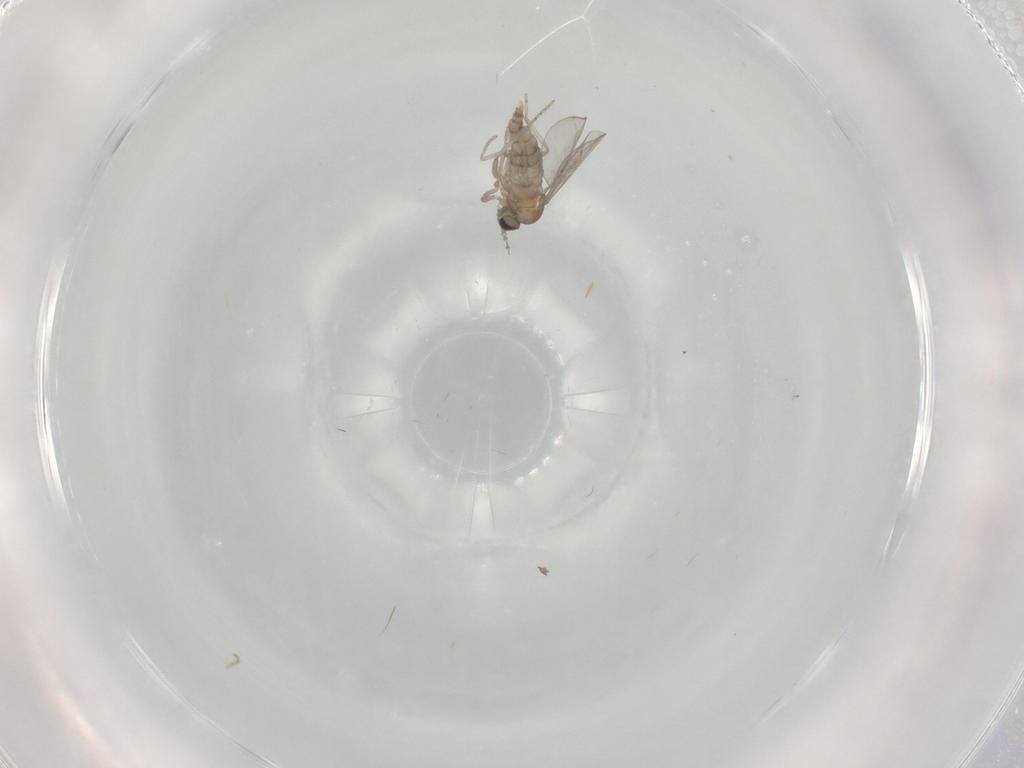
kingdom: Animalia
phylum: Arthropoda
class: Insecta
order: Diptera
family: Cecidomyiidae
